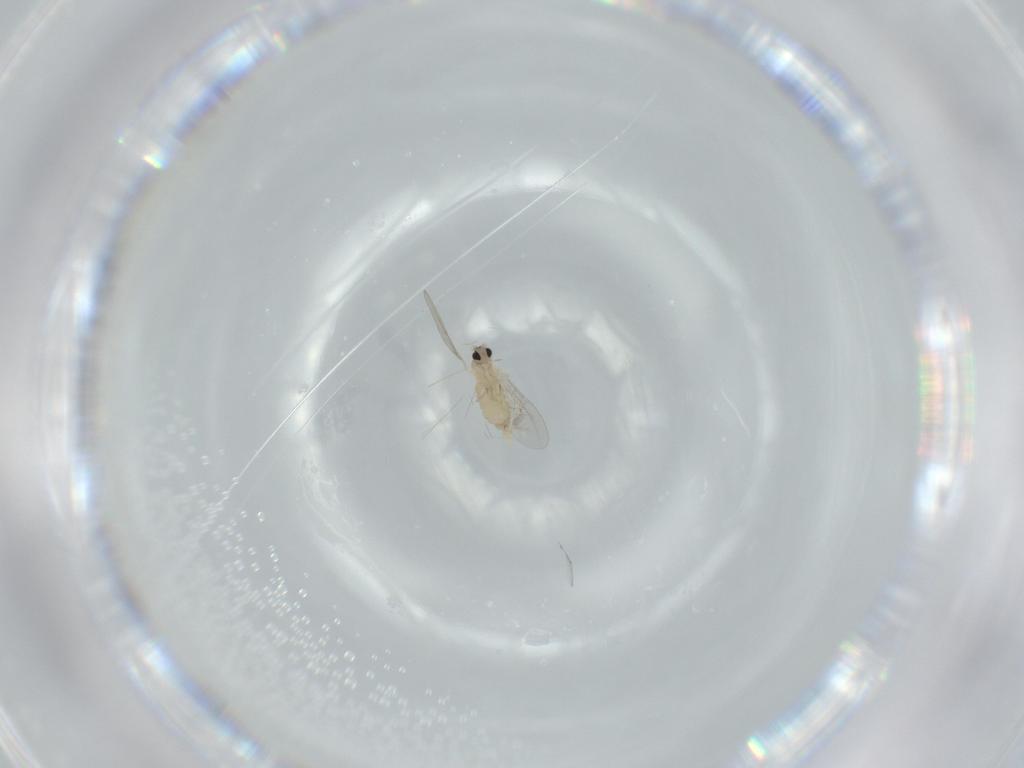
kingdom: Animalia
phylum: Arthropoda
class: Insecta
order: Diptera
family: Cecidomyiidae
